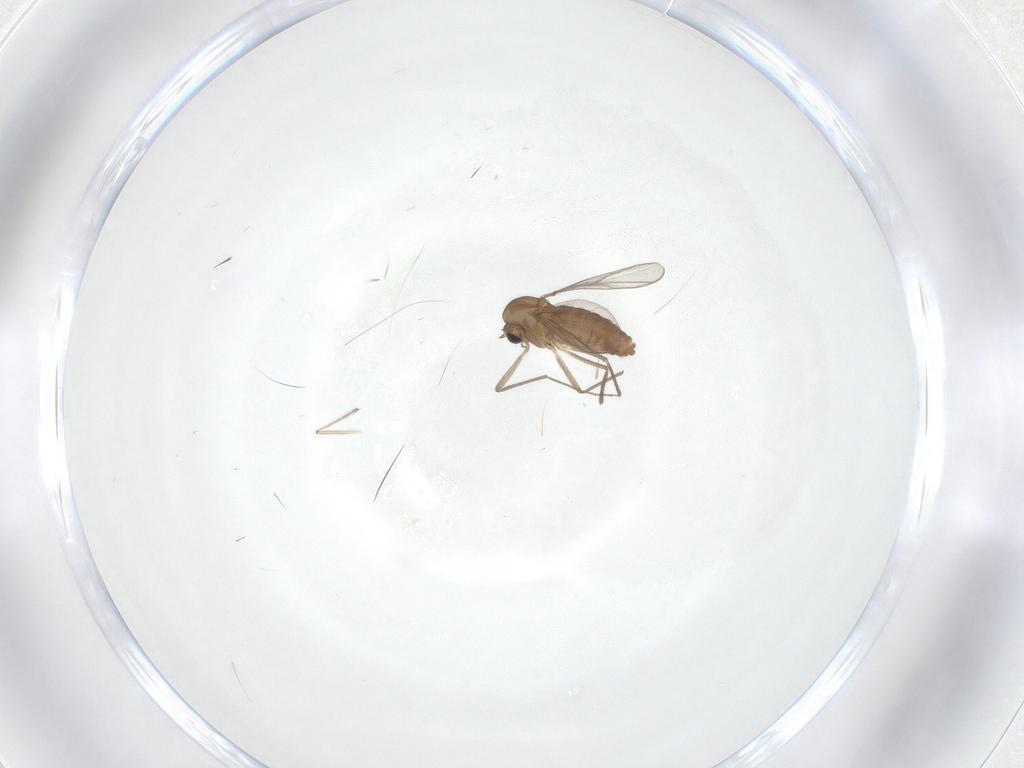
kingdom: Animalia
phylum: Arthropoda
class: Insecta
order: Diptera
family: Chironomidae
